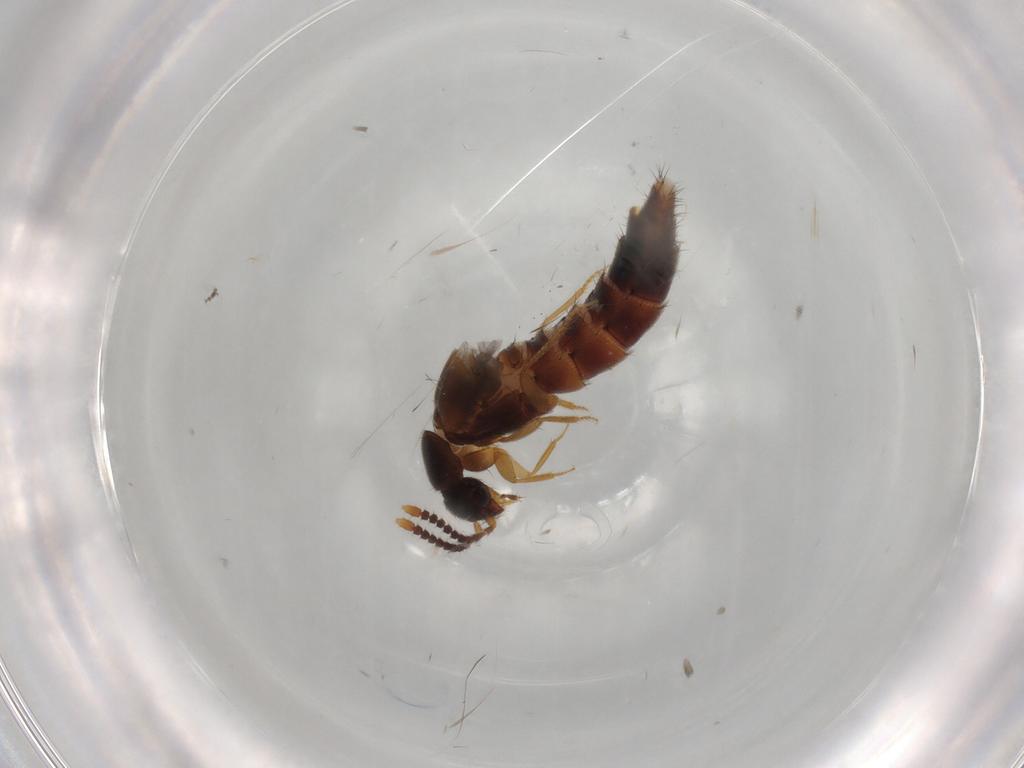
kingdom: Animalia
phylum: Arthropoda
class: Insecta
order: Coleoptera
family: Staphylinidae
